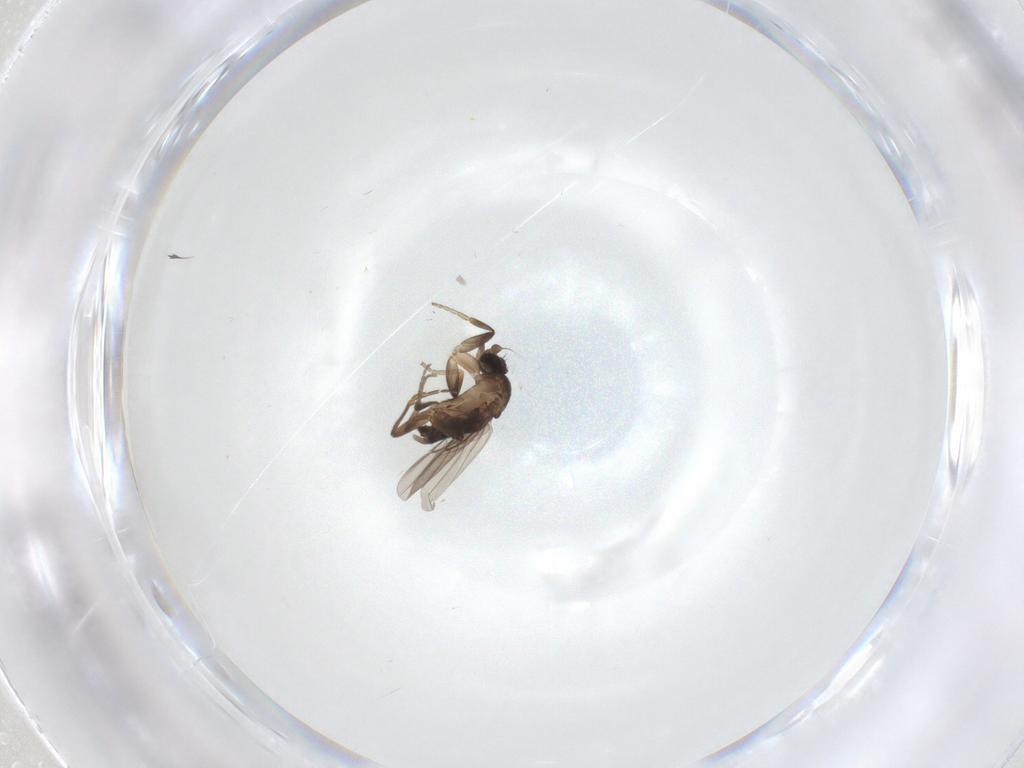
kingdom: Animalia
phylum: Arthropoda
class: Insecta
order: Diptera
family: Phoridae
